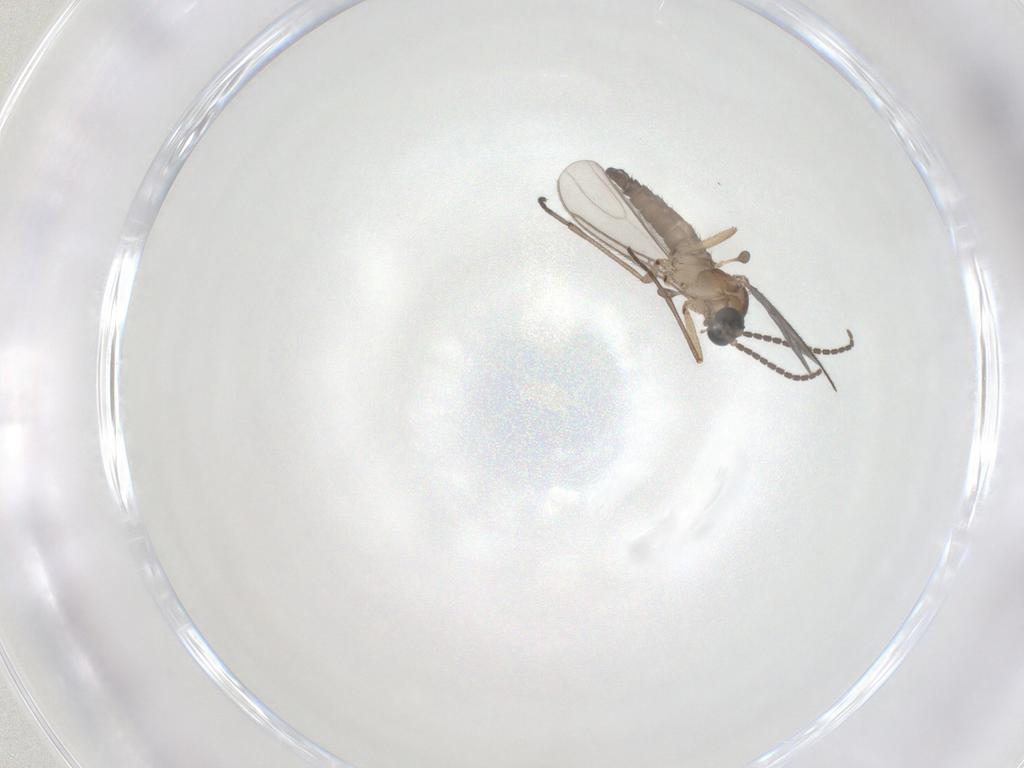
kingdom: Animalia
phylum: Arthropoda
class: Insecta
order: Diptera
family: Sciaridae
